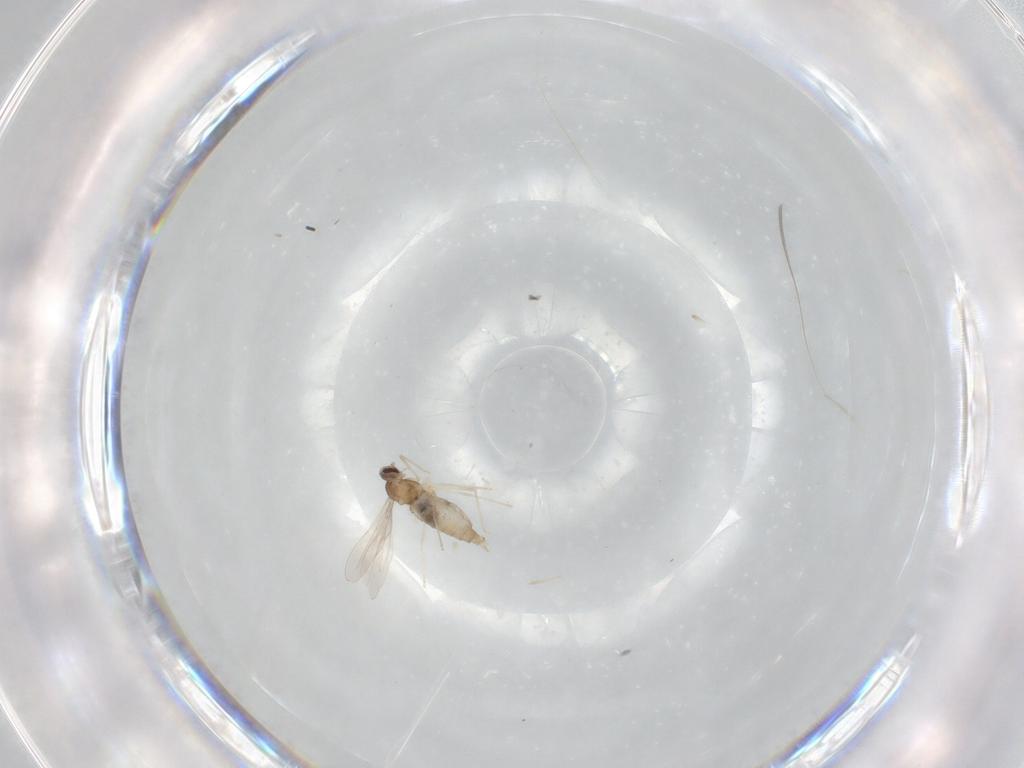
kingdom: Animalia
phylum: Arthropoda
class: Insecta
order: Diptera
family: Cecidomyiidae
